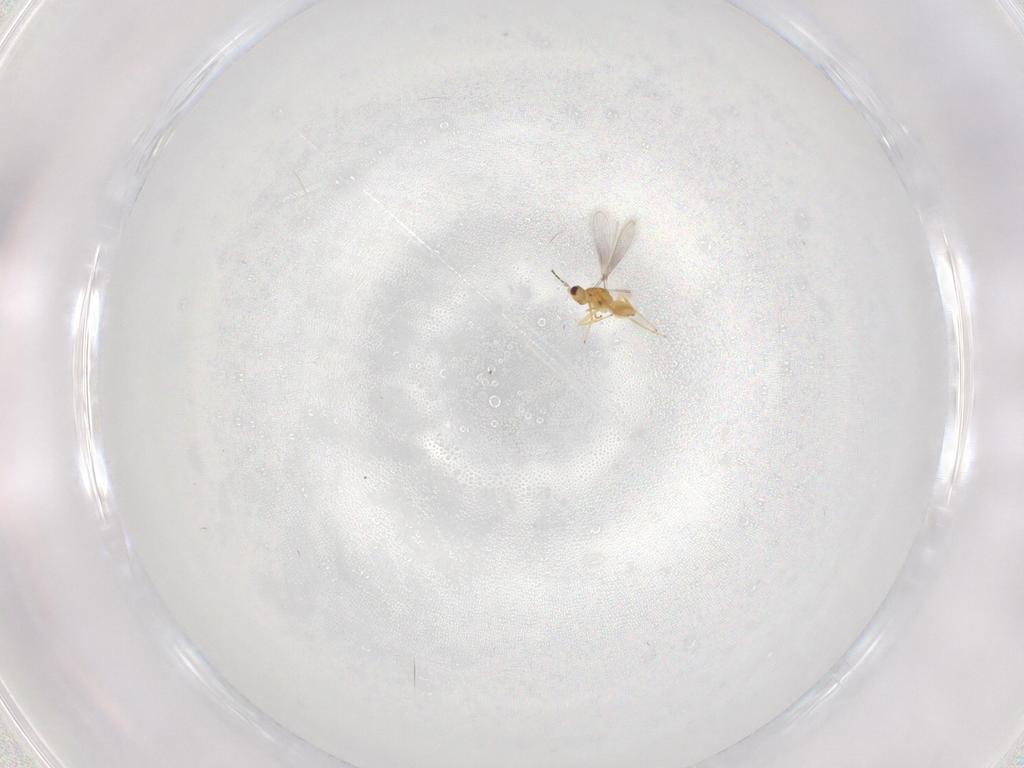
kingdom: Animalia
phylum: Arthropoda
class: Insecta
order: Hymenoptera
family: Mymaridae
